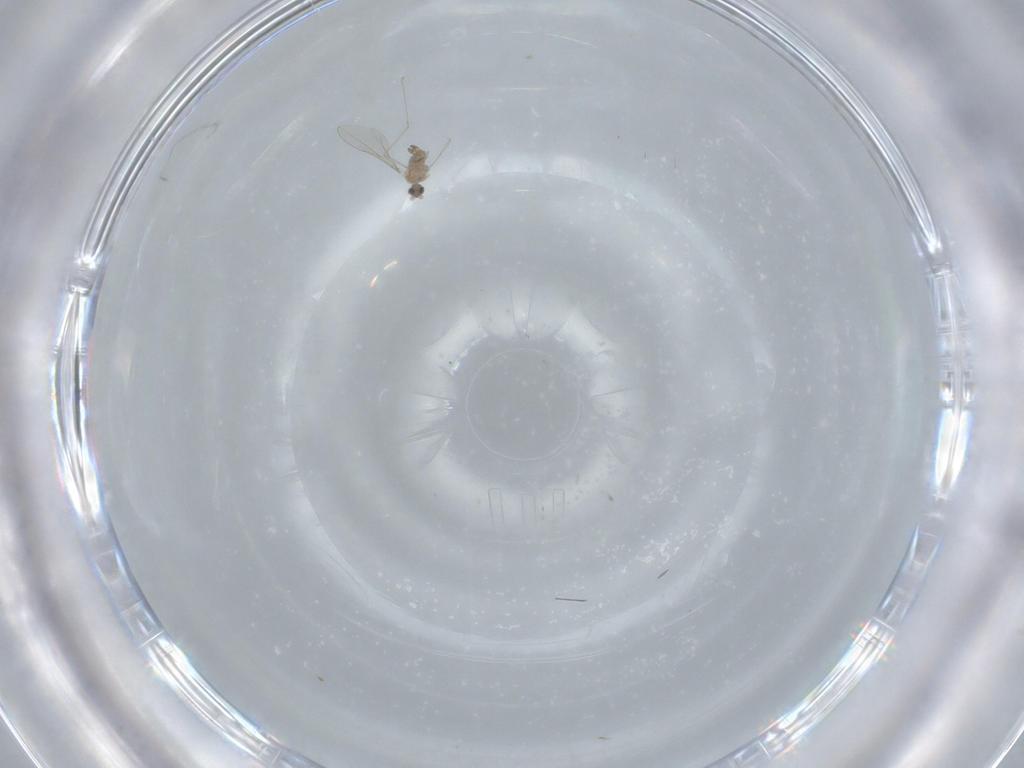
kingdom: Animalia
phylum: Arthropoda
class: Insecta
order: Diptera
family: Cecidomyiidae
